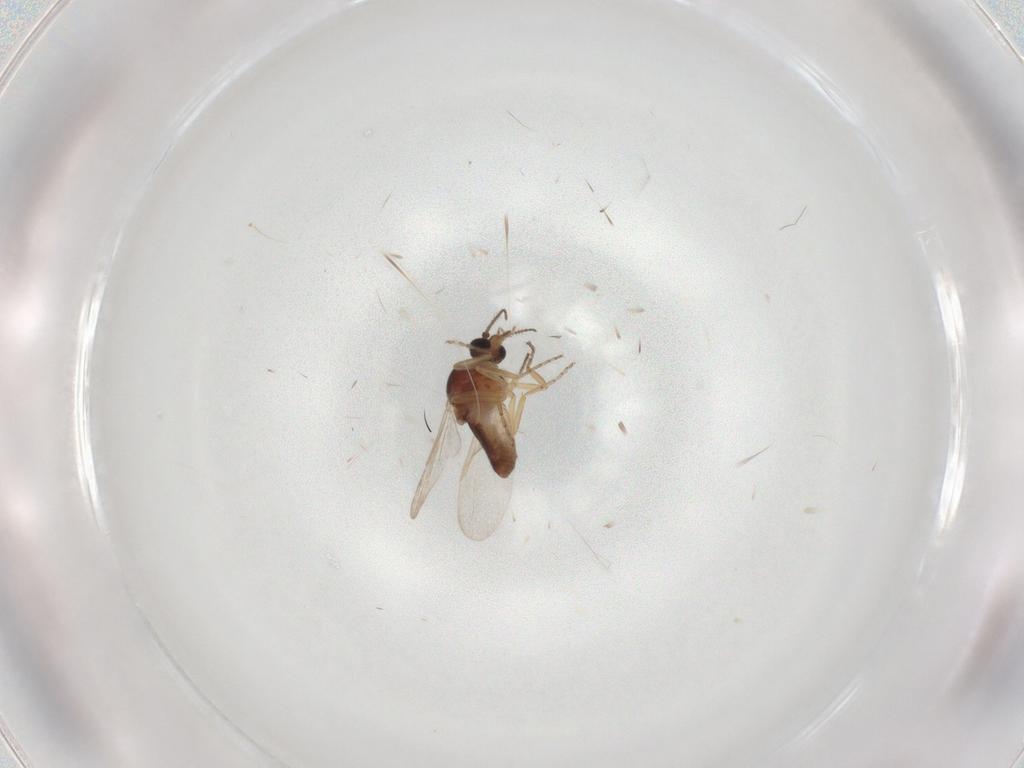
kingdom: Animalia
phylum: Arthropoda
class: Insecta
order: Diptera
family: Ceratopogonidae
